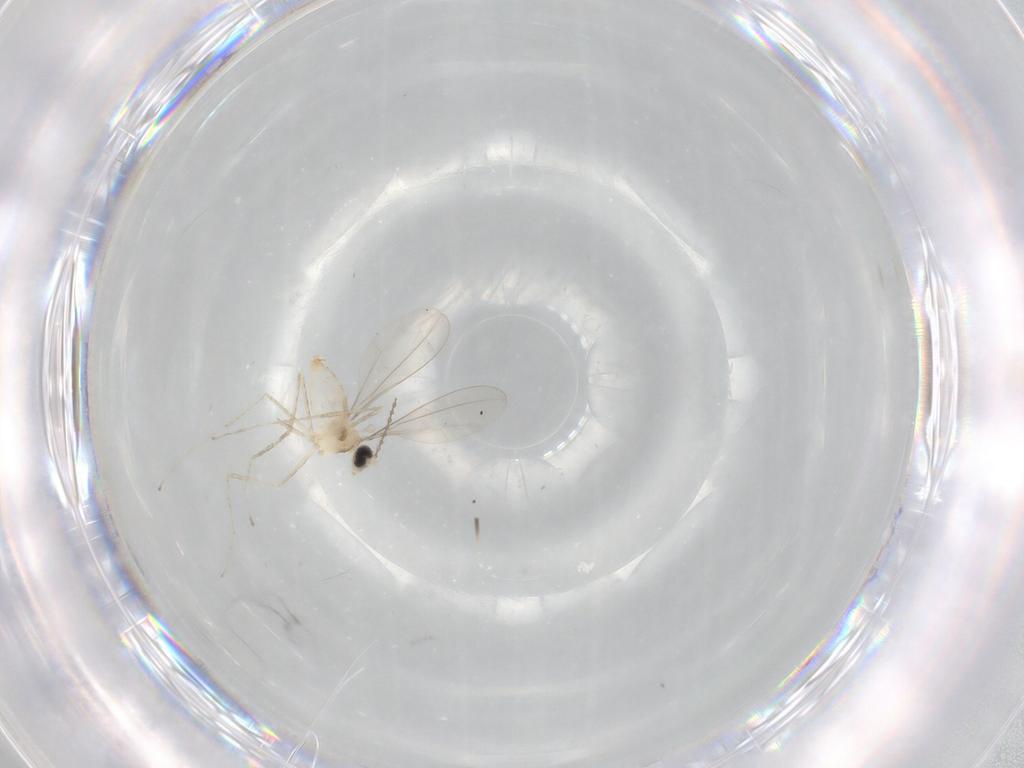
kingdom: Animalia
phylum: Arthropoda
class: Insecta
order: Diptera
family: Cecidomyiidae
